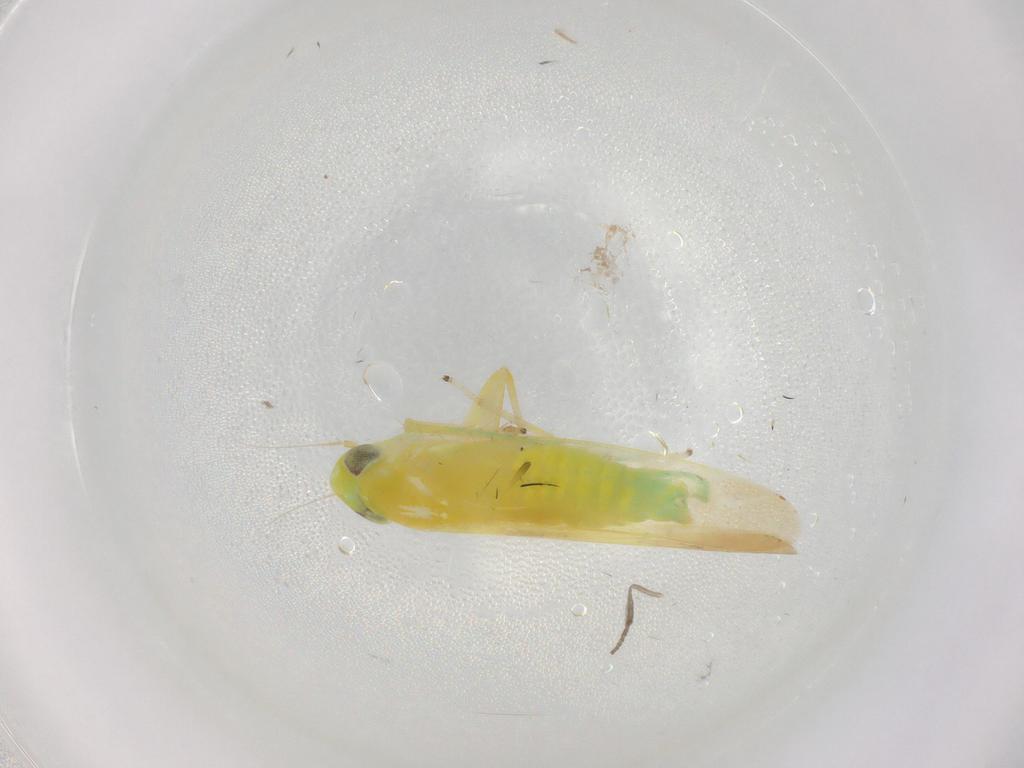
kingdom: Animalia
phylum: Arthropoda
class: Insecta
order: Hemiptera
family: Cicadellidae
